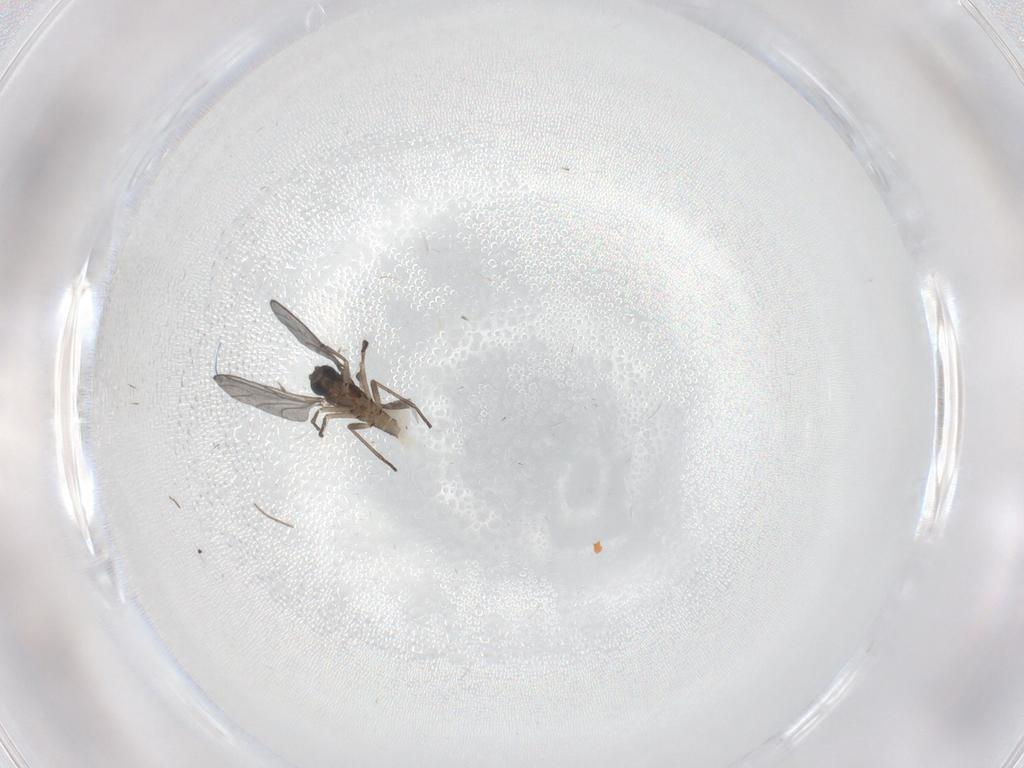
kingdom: Animalia
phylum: Arthropoda
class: Insecta
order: Diptera
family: Sciaridae
